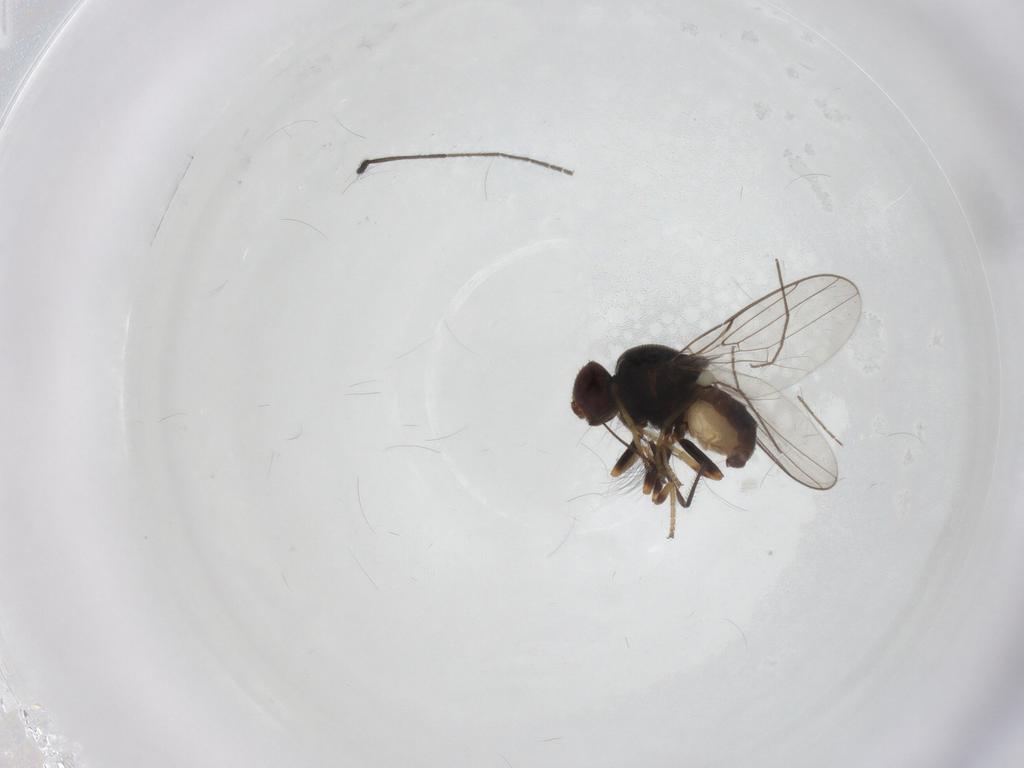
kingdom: Animalia
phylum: Arthropoda
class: Insecta
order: Diptera
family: Chloropidae
